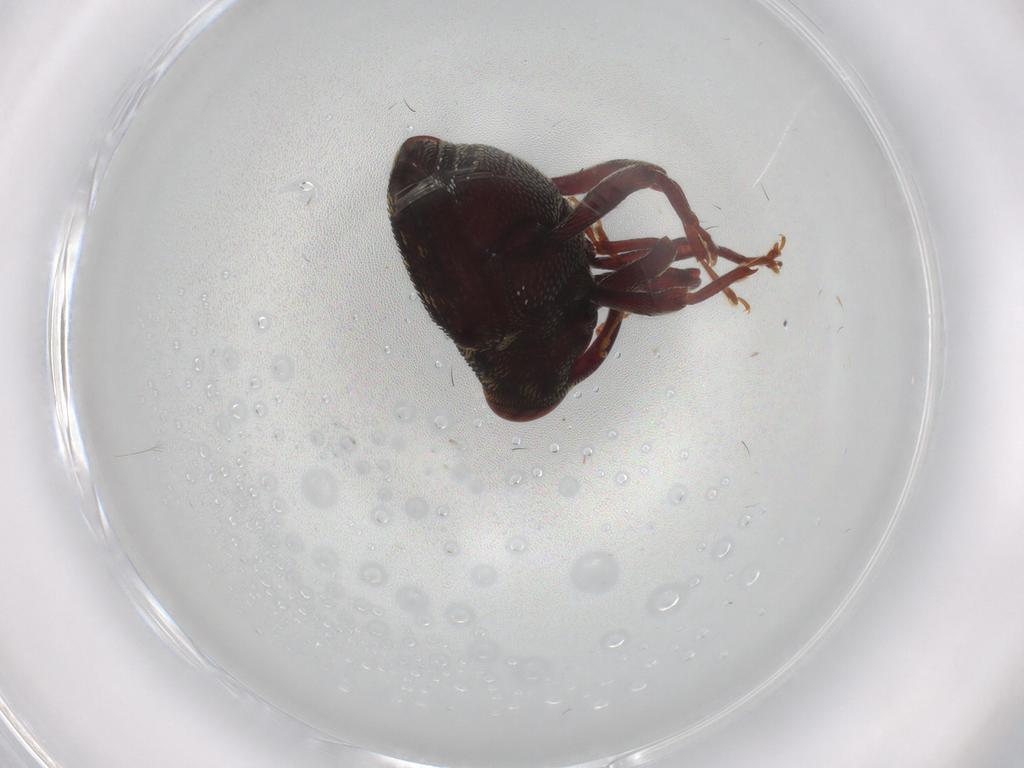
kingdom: Animalia
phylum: Arthropoda
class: Insecta
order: Coleoptera
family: Curculionidae
